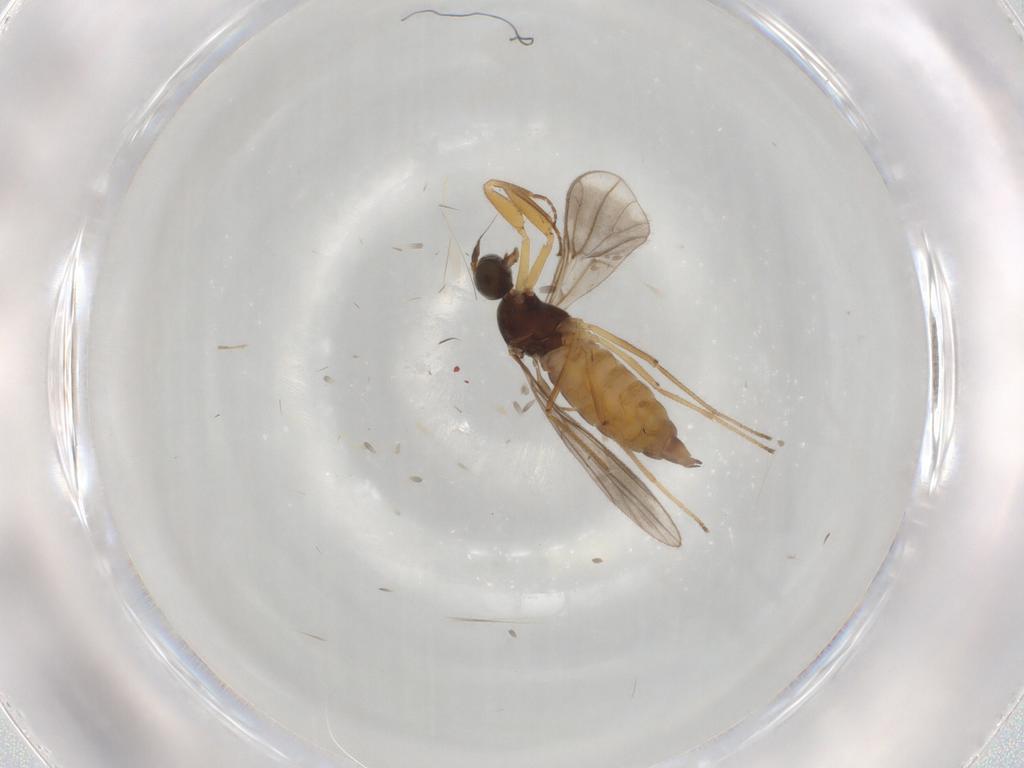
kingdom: Animalia
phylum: Arthropoda
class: Insecta
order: Diptera
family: Empididae
